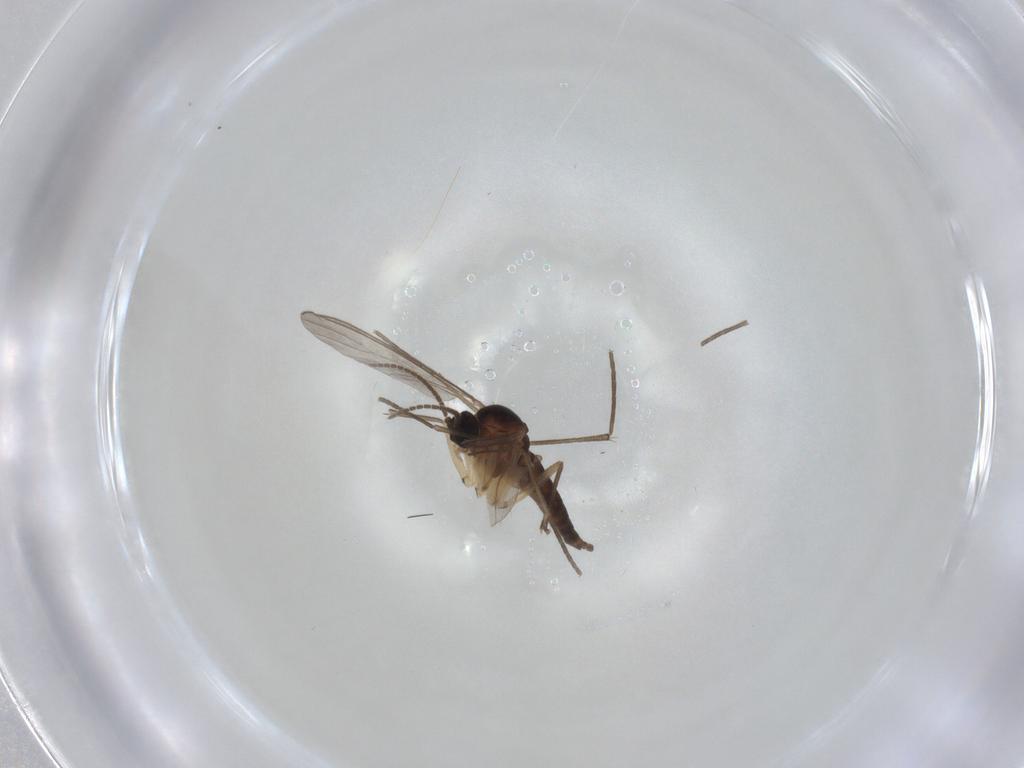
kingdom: Animalia
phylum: Arthropoda
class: Insecta
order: Diptera
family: Sciaridae
